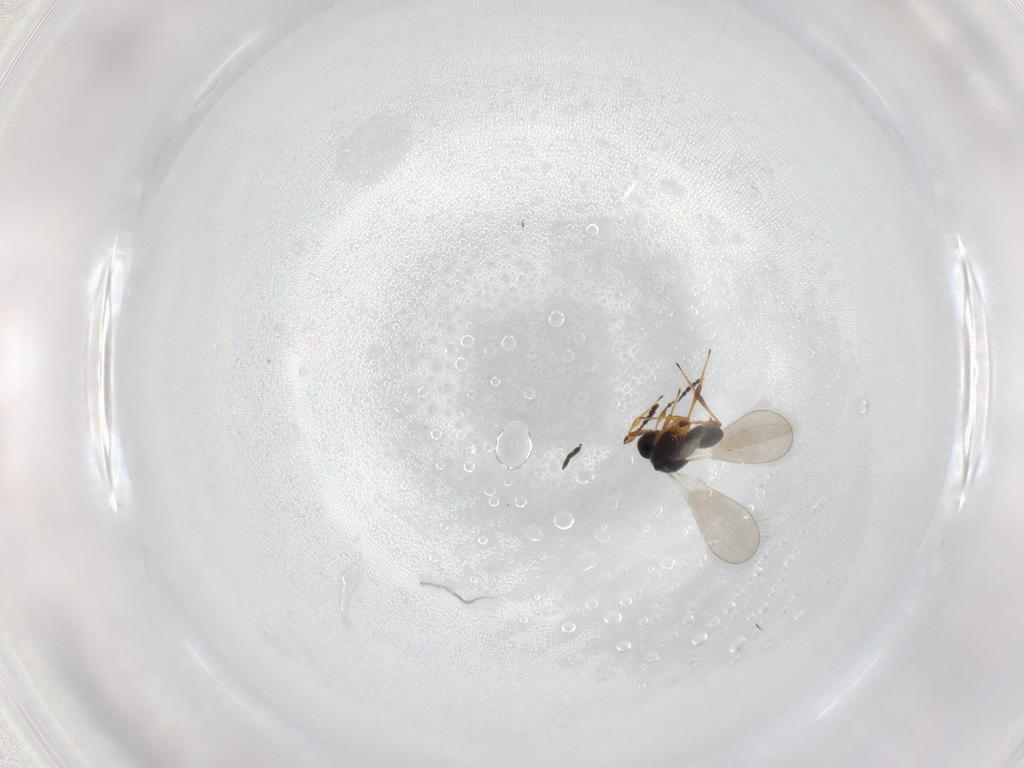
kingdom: Animalia
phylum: Arthropoda
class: Insecta
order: Hymenoptera
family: Platygastridae
